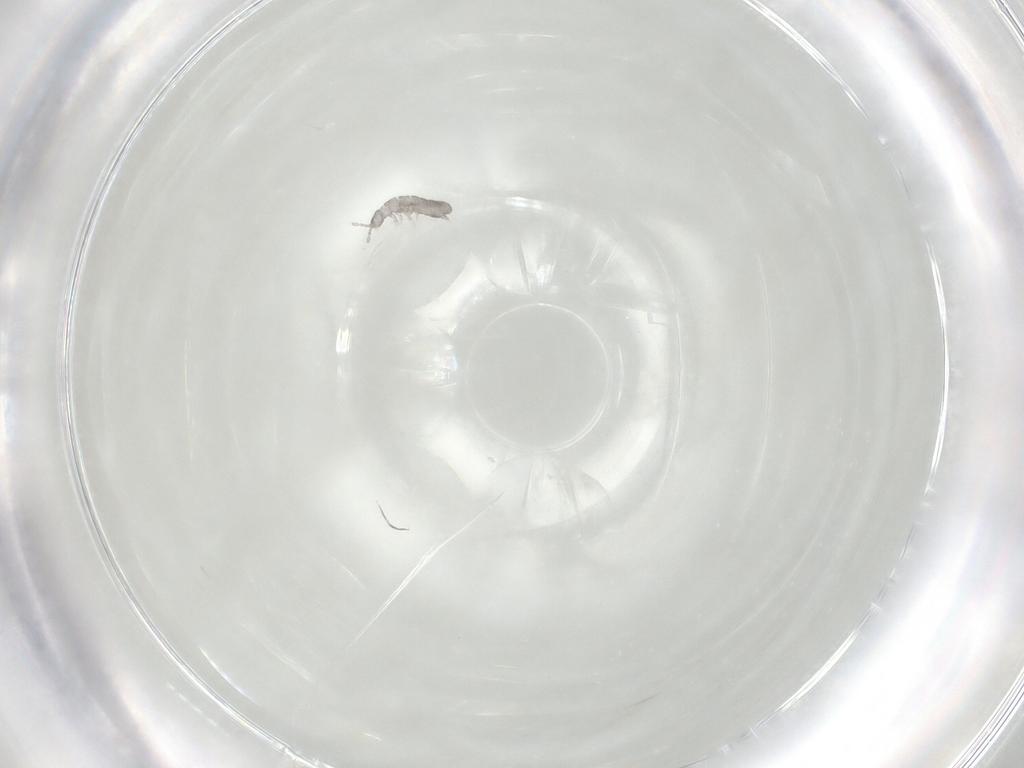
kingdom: Animalia
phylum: Arthropoda
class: Collembola
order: Entomobryomorpha
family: Isotomidae
